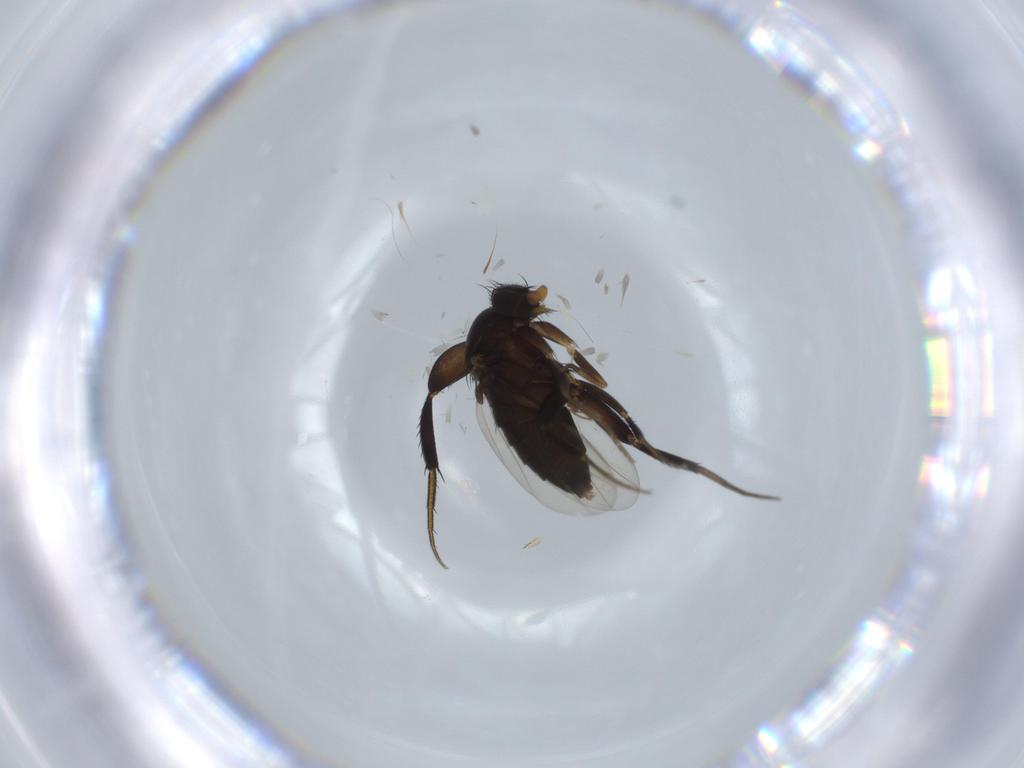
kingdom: Animalia
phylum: Arthropoda
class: Insecta
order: Diptera
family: Phoridae
